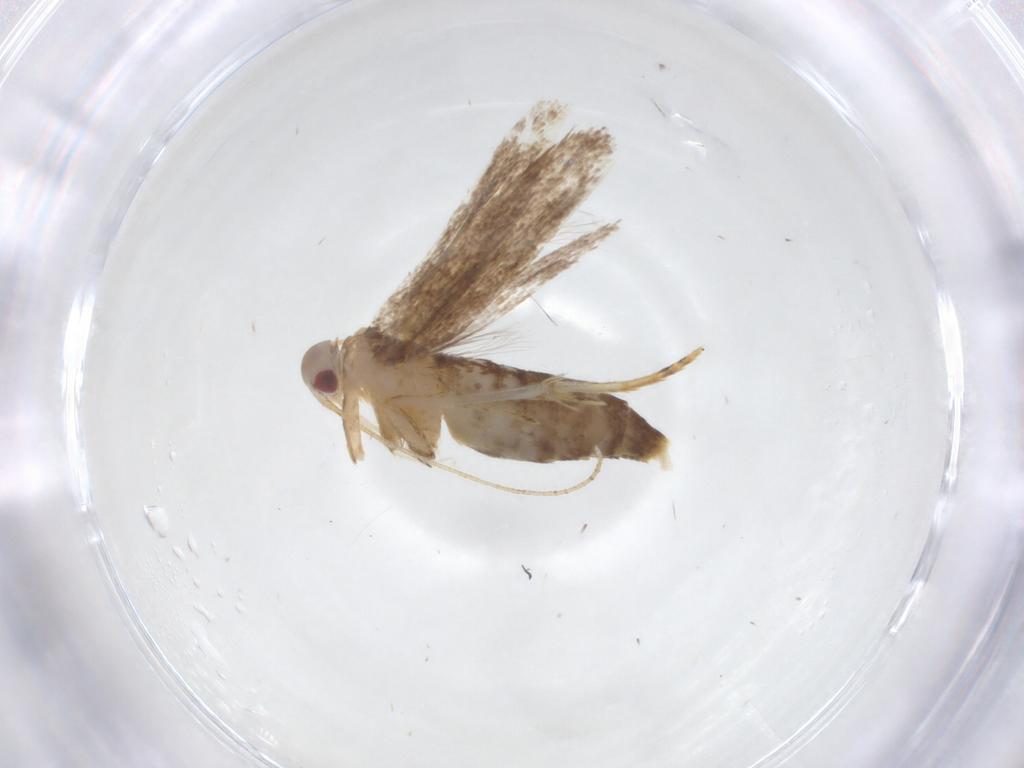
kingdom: Animalia
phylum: Arthropoda
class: Insecta
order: Lepidoptera
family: Cosmopterigidae
